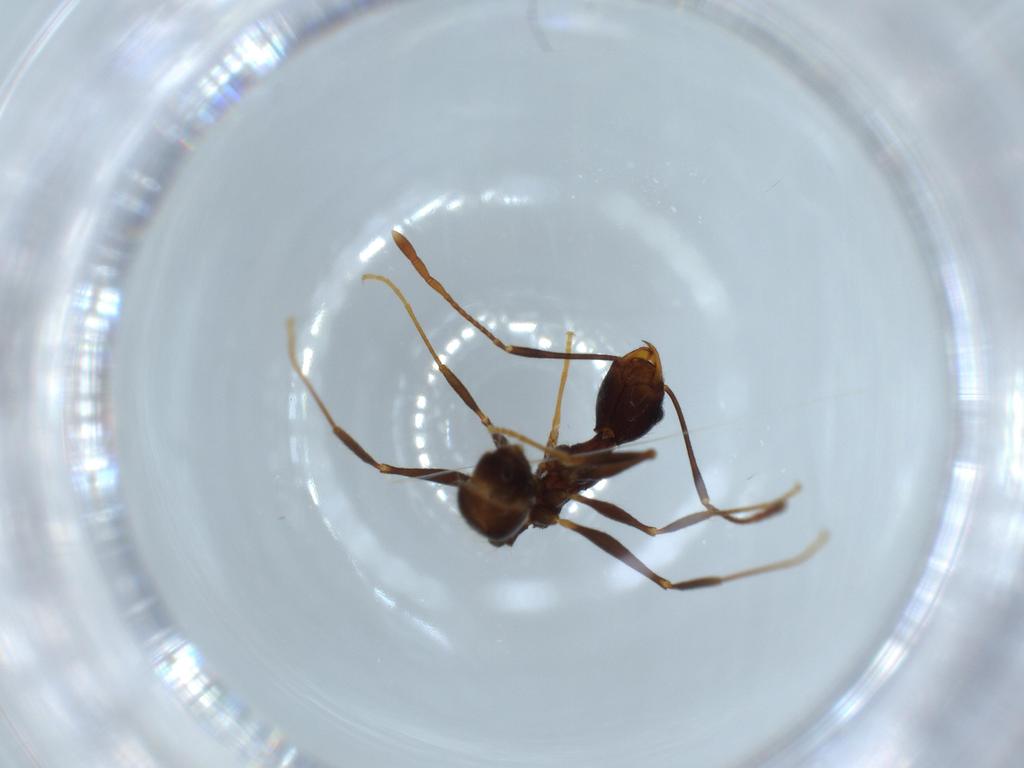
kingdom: Animalia
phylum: Arthropoda
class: Insecta
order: Hymenoptera
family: Formicidae
